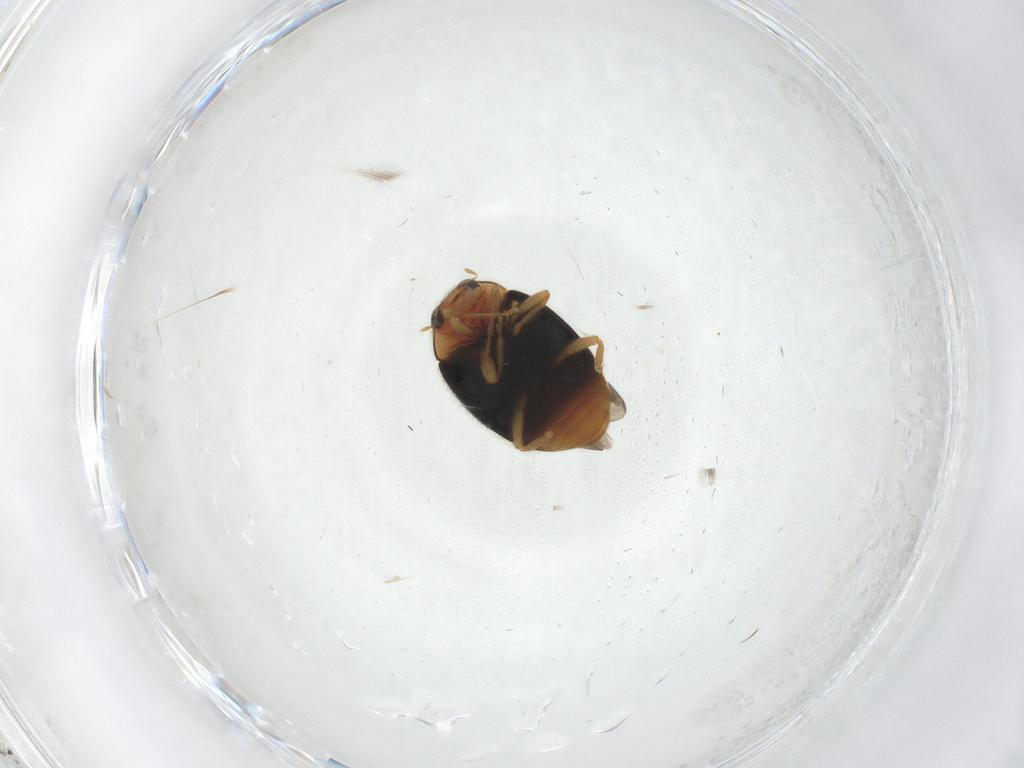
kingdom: Animalia
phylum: Arthropoda
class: Insecta
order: Coleoptera
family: Coccinellidae
